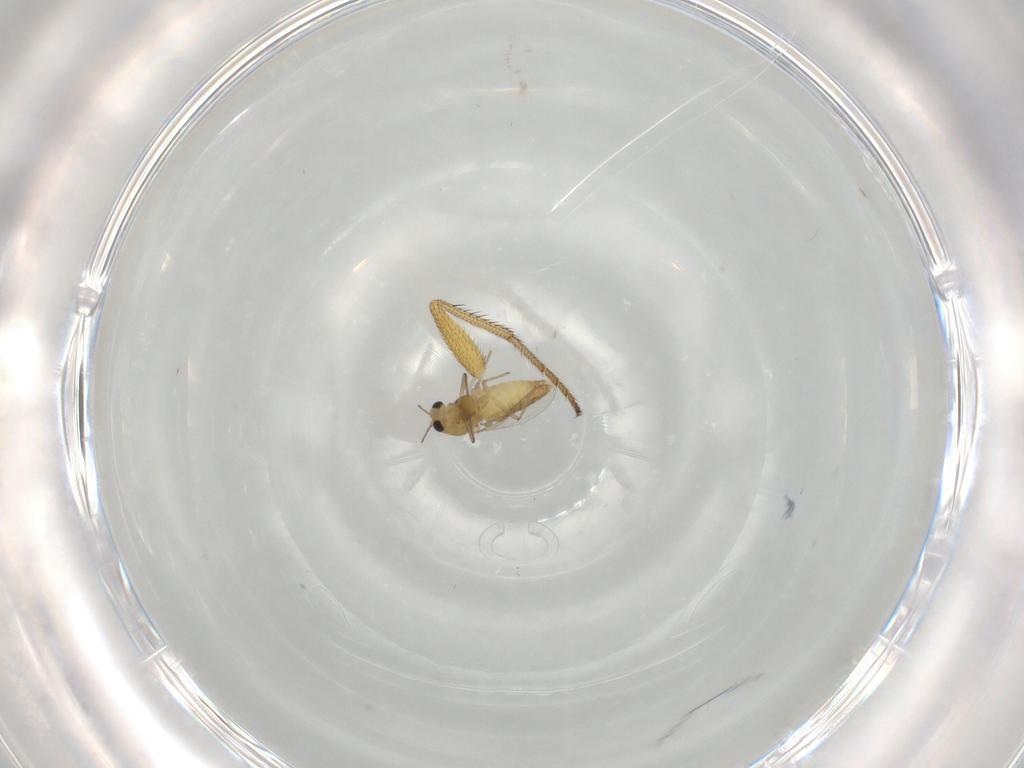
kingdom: Animalia
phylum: Arthropoda
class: Insecta
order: Diptera
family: Chironomidae
